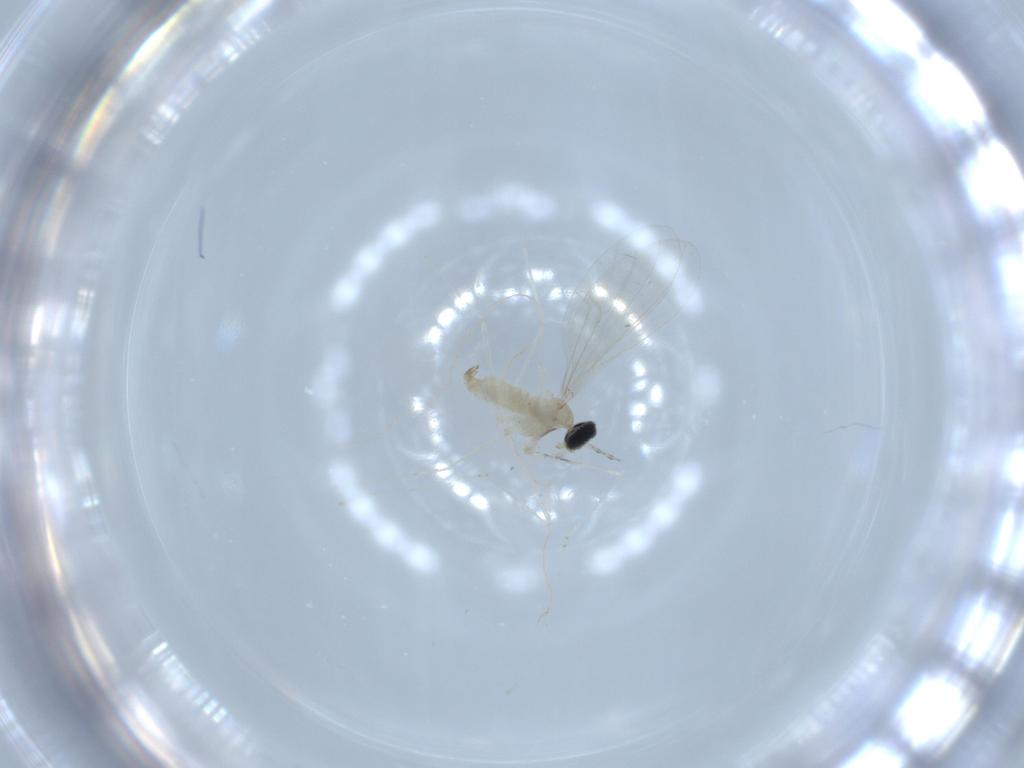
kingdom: Animalia
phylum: Arthropoda
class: Insecta
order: Diptera
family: Cecidomyiidae
